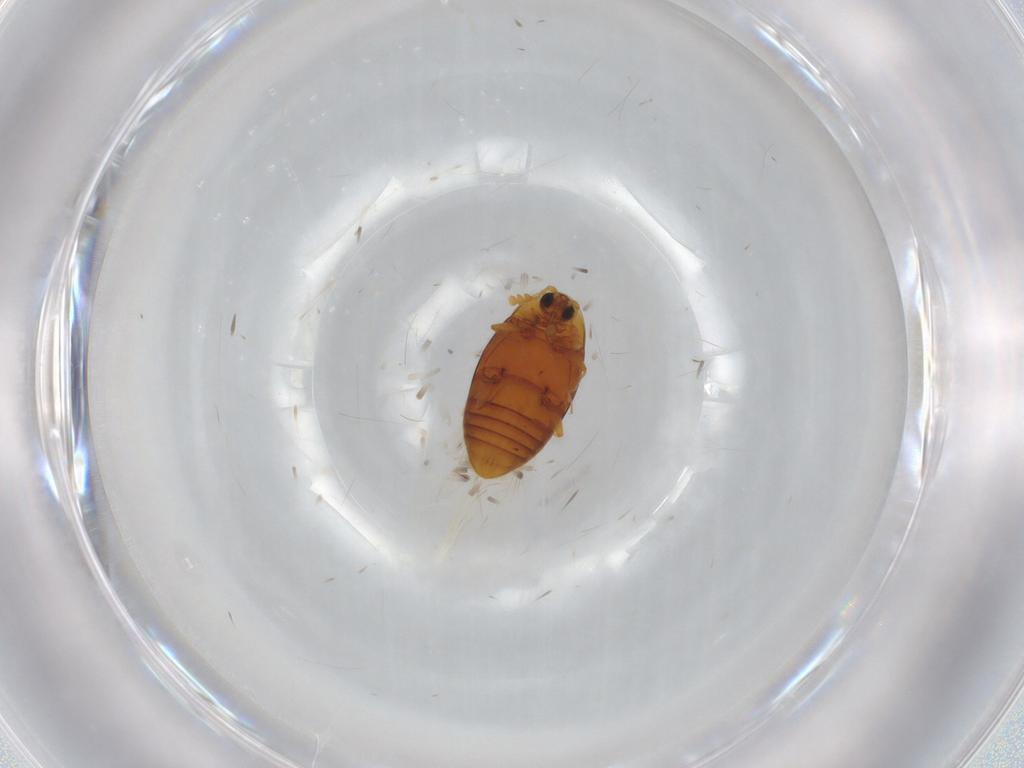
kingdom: Animalia
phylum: Arthropoda
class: Insecta
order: Coleoptera
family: Corylophidae
